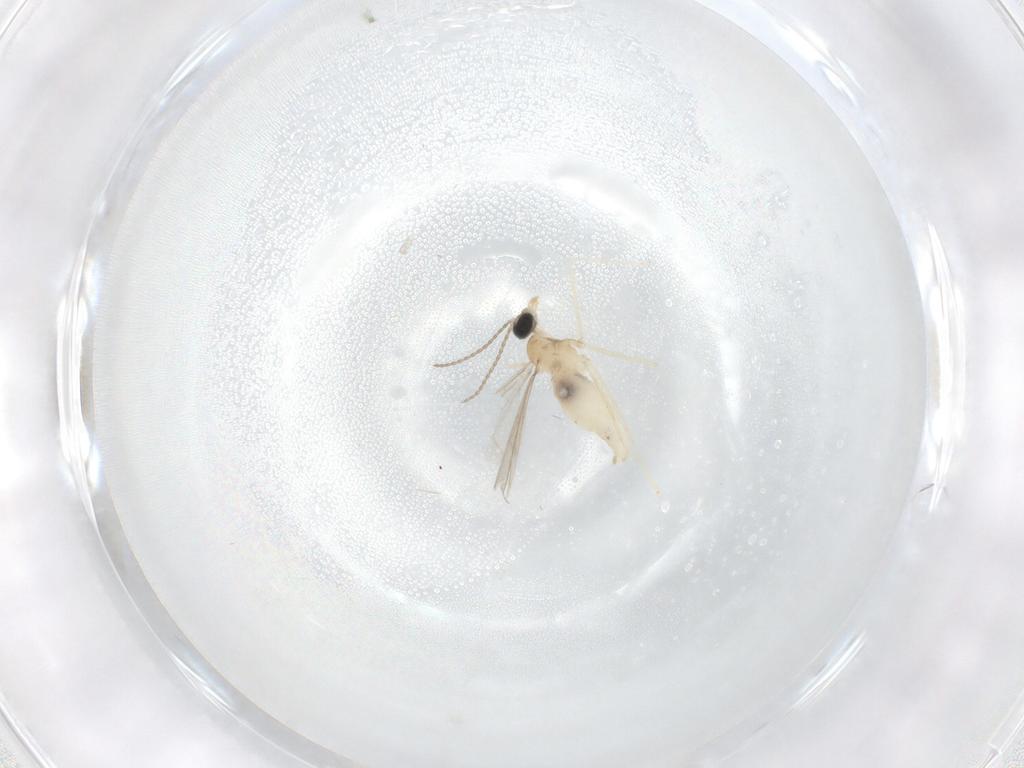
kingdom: Animalia
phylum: Arthropoda
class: Insecta
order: Diptera
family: Cecidomyiidae
